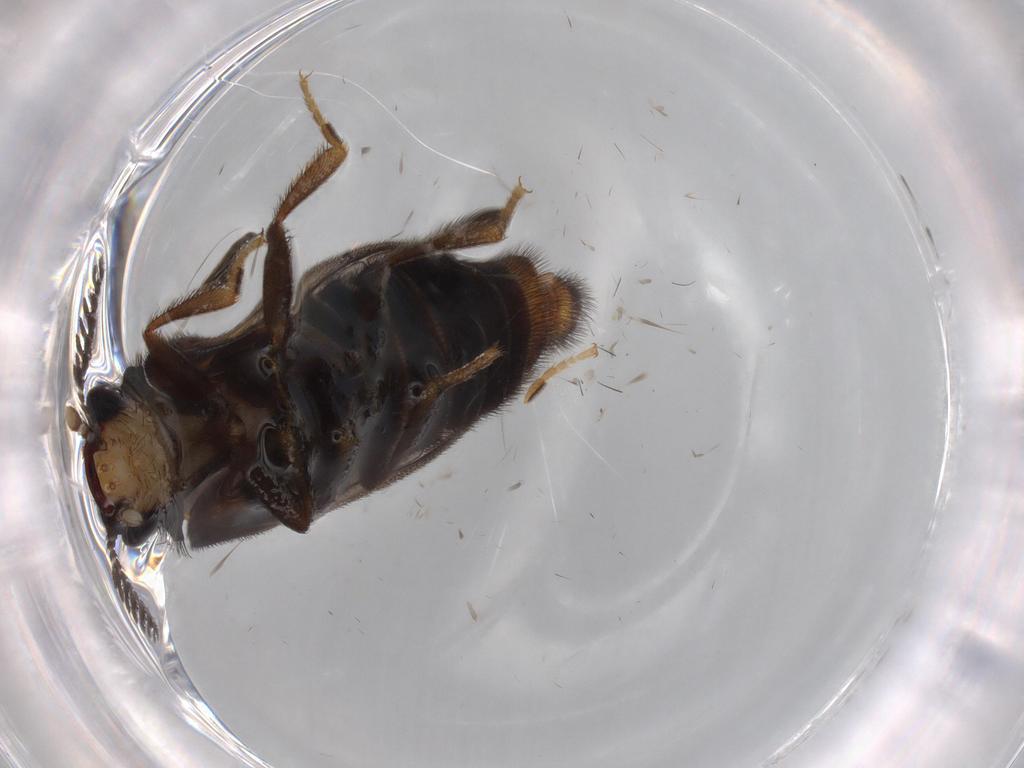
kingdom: Animalia
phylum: Arthropoda
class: Insecta
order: Coleoptera
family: Phengodidae
